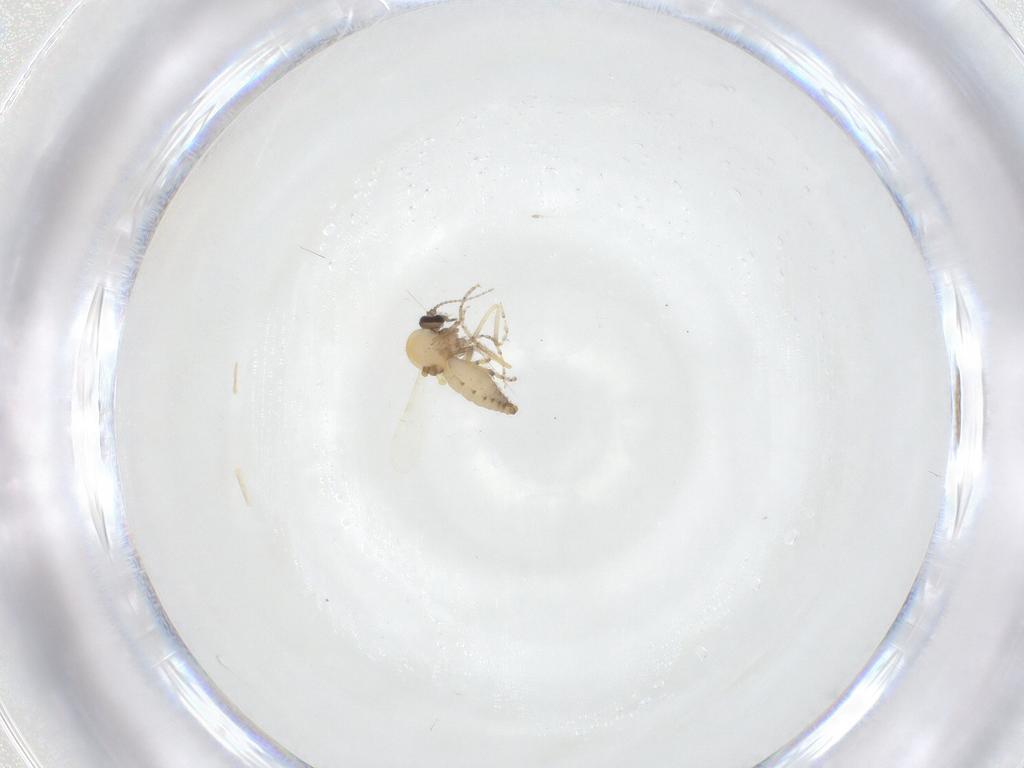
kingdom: Animalia
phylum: Arthropoda
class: Insecta
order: Diptera
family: Ceratopogonidae
